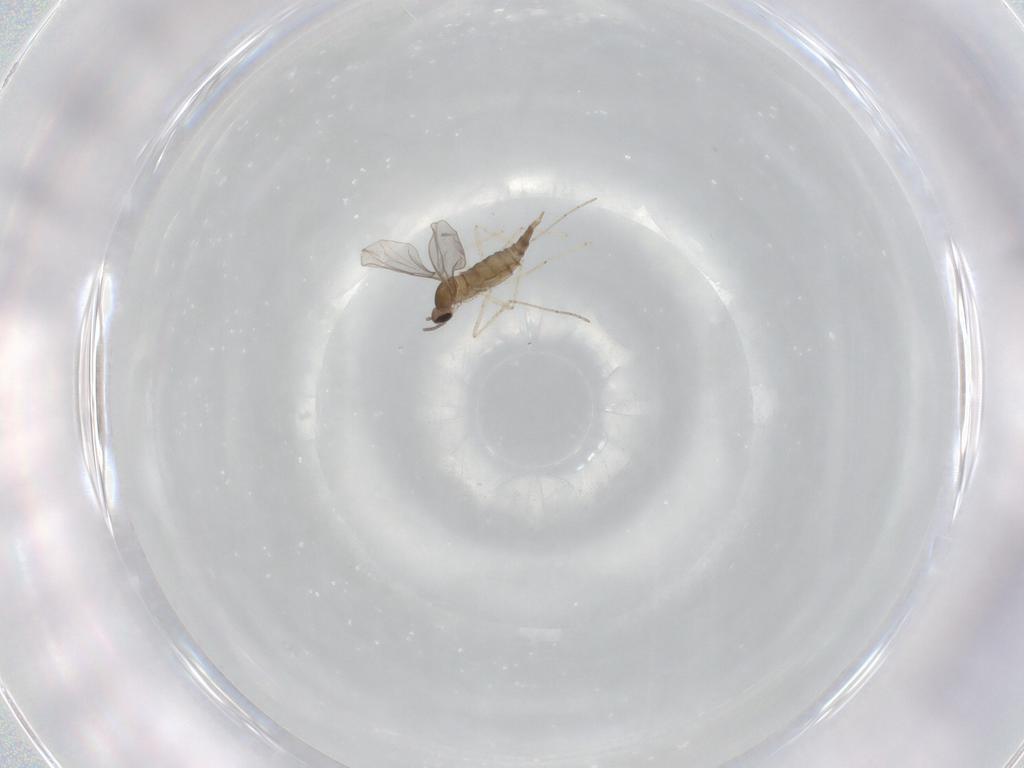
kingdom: Animalia
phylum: Arthropoda
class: Insecta
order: Diptera
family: Cecidomyiidae
